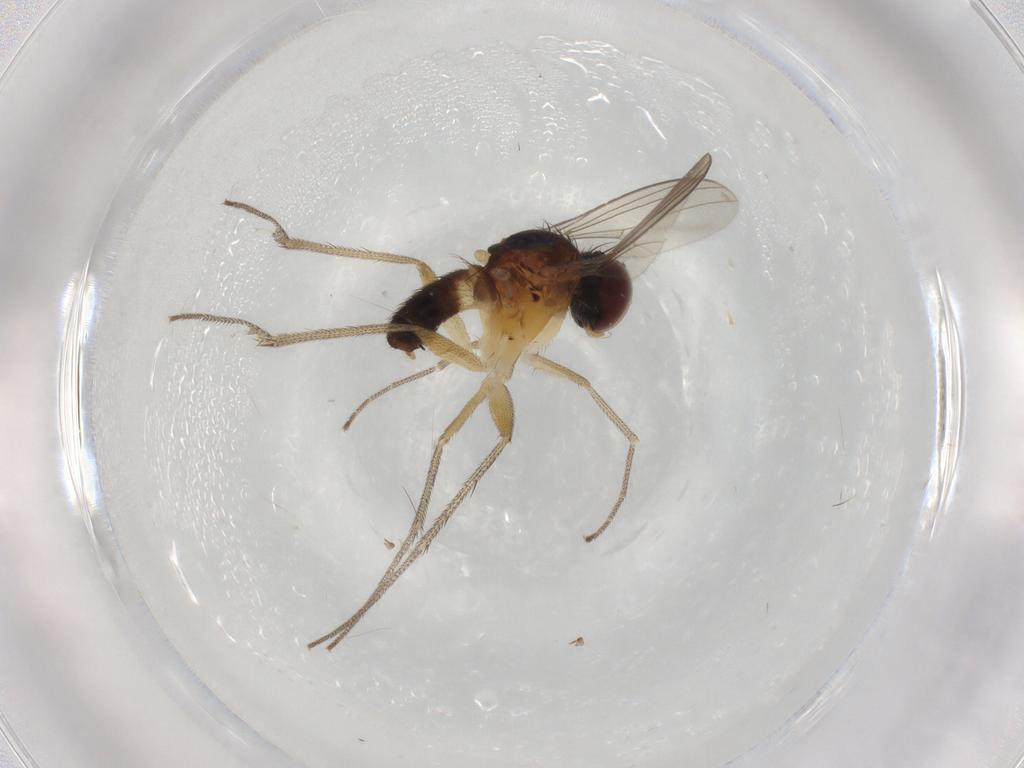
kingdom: Animalia
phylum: Arthropoda
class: Insecta
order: Diptera
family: Dolichopodidae
